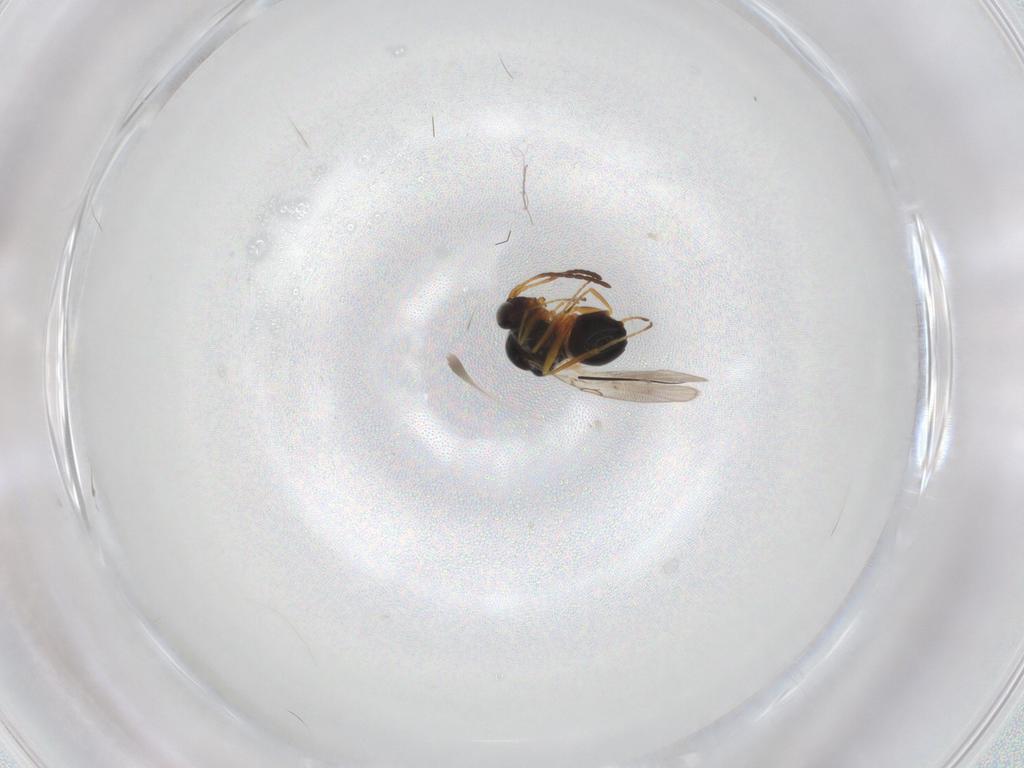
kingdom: Animalia
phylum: Arthropoda
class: Insecta
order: Hymenoptera
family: Figitidae
